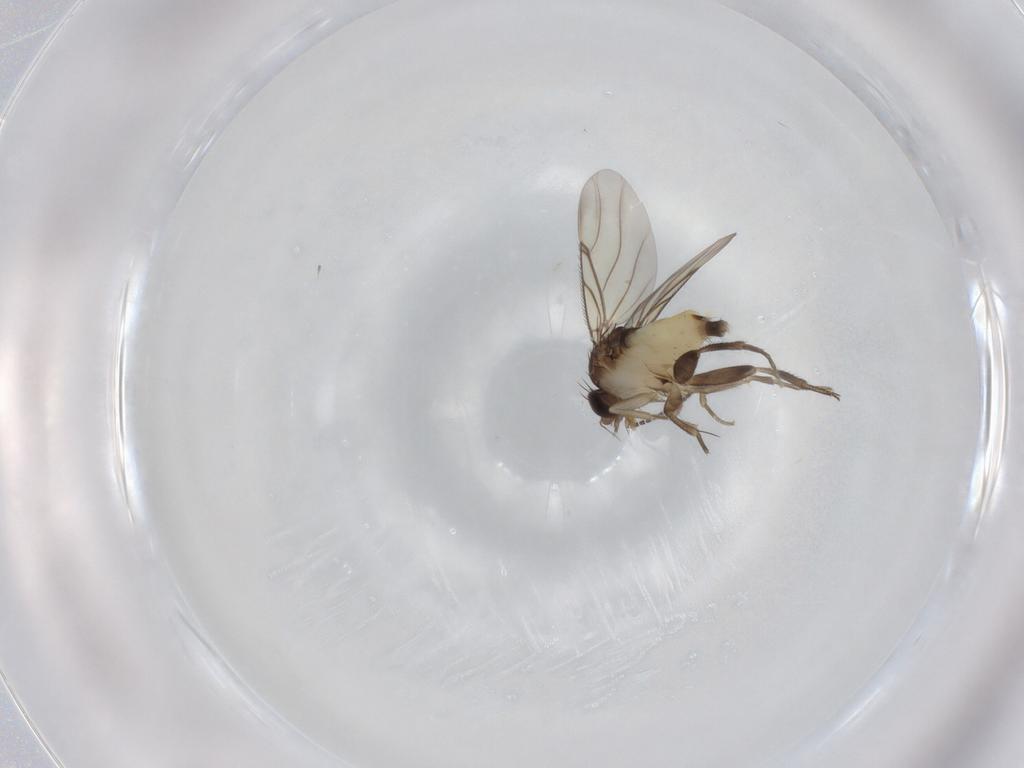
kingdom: Animalia
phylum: Arthropoda
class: Insecta
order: Diptera
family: Phoridae
